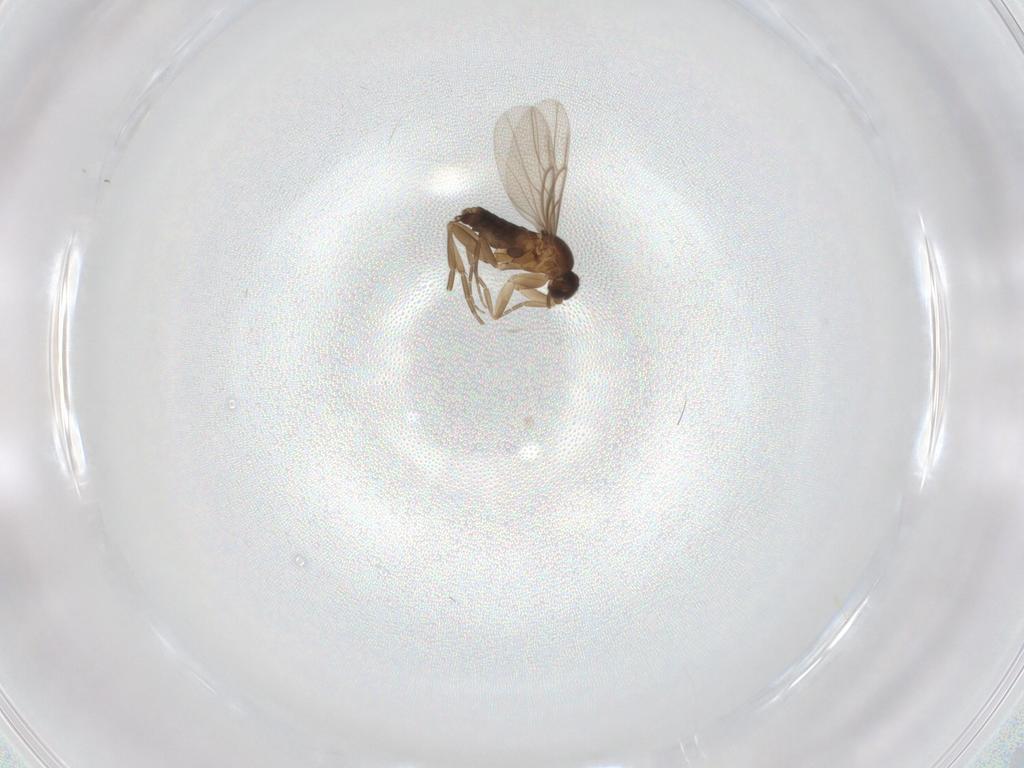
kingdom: Animalia
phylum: Arthropoda
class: Insecta
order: Diptera
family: Phoridae
